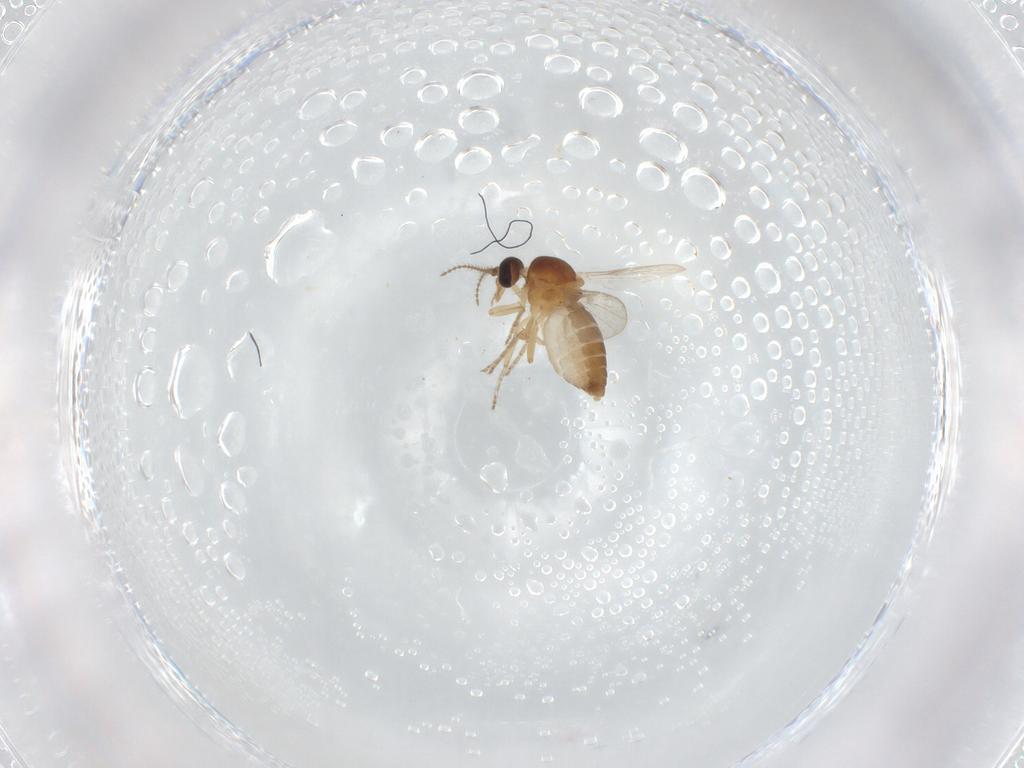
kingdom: Animalia
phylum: Arthropoda
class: Insecta
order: Diptera
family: Ceratopogonidae
